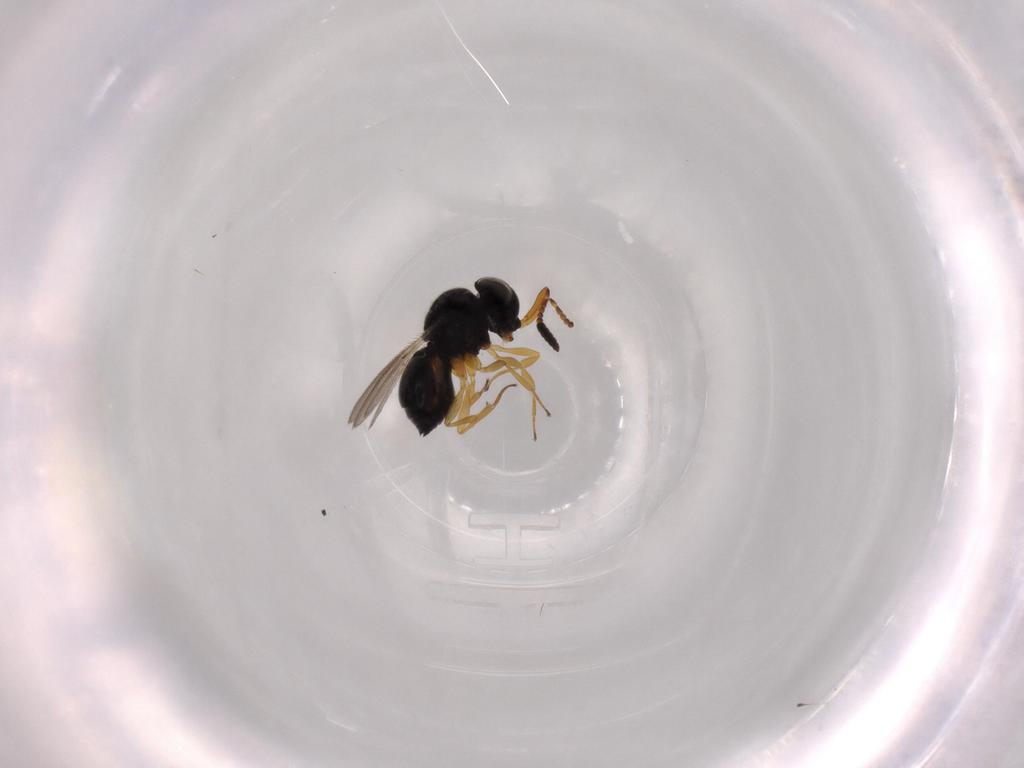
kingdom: Animalia
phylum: Arthropoda
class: Insecta
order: Hymenoptera
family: Scelionidae
